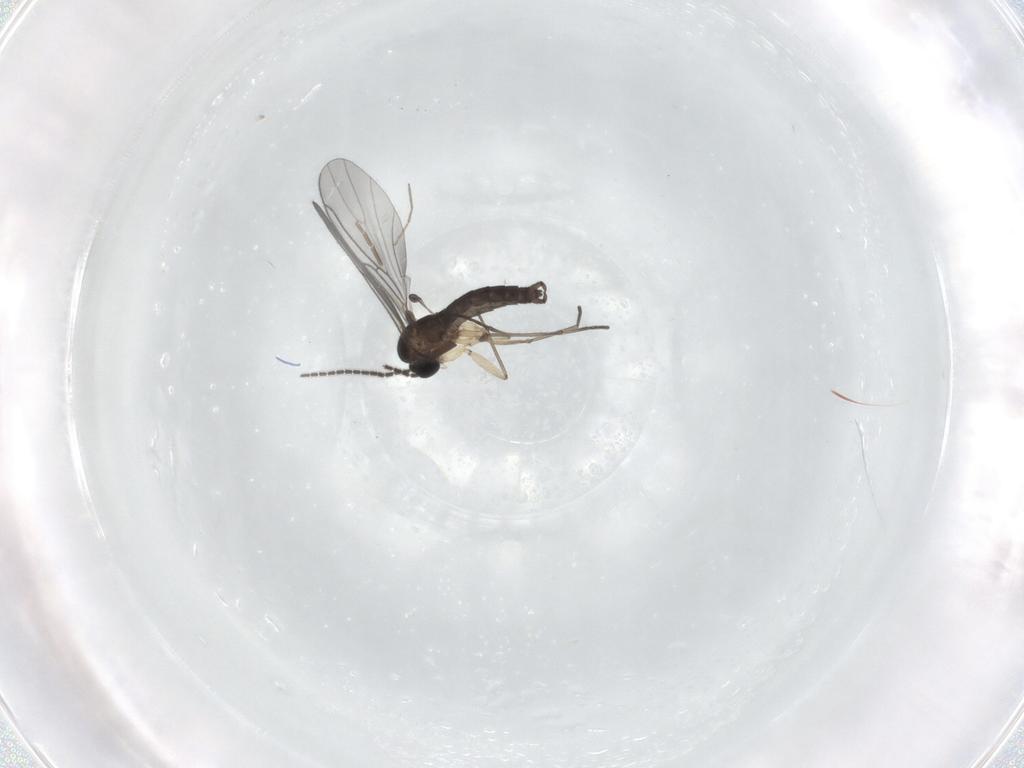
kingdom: Animalia
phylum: Arthropoda
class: Insecta
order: Diptera
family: Sciaridae
